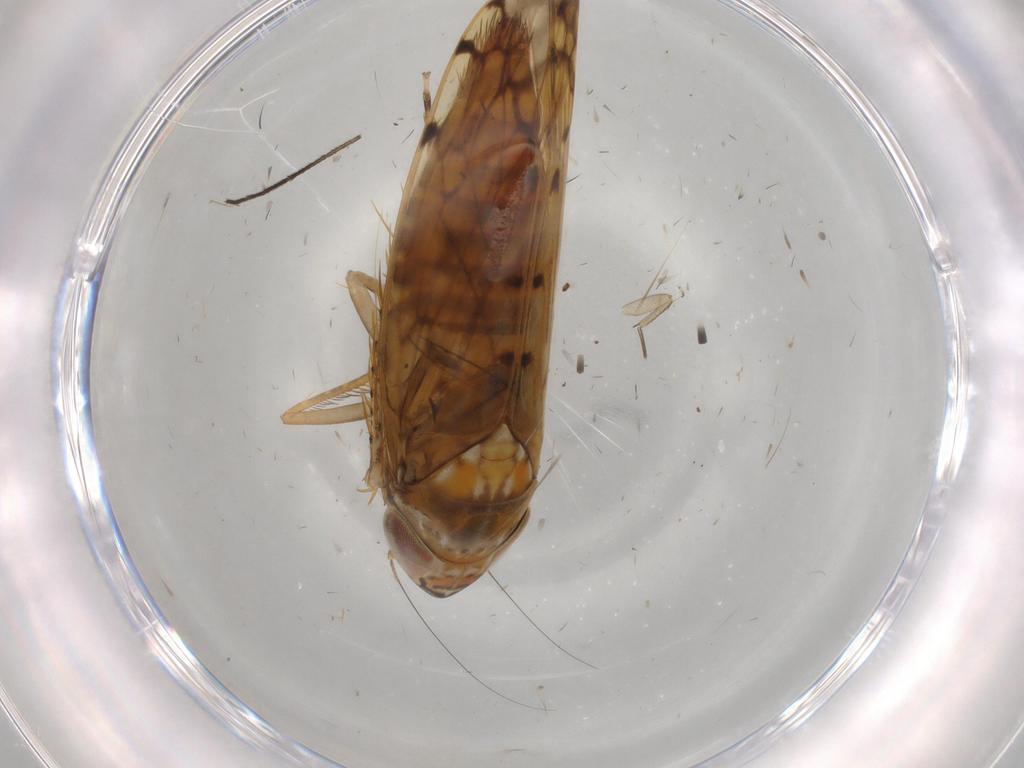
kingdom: Animalia
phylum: Arthropoda
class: Insecta
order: Hemiptera
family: Cicadellidae
